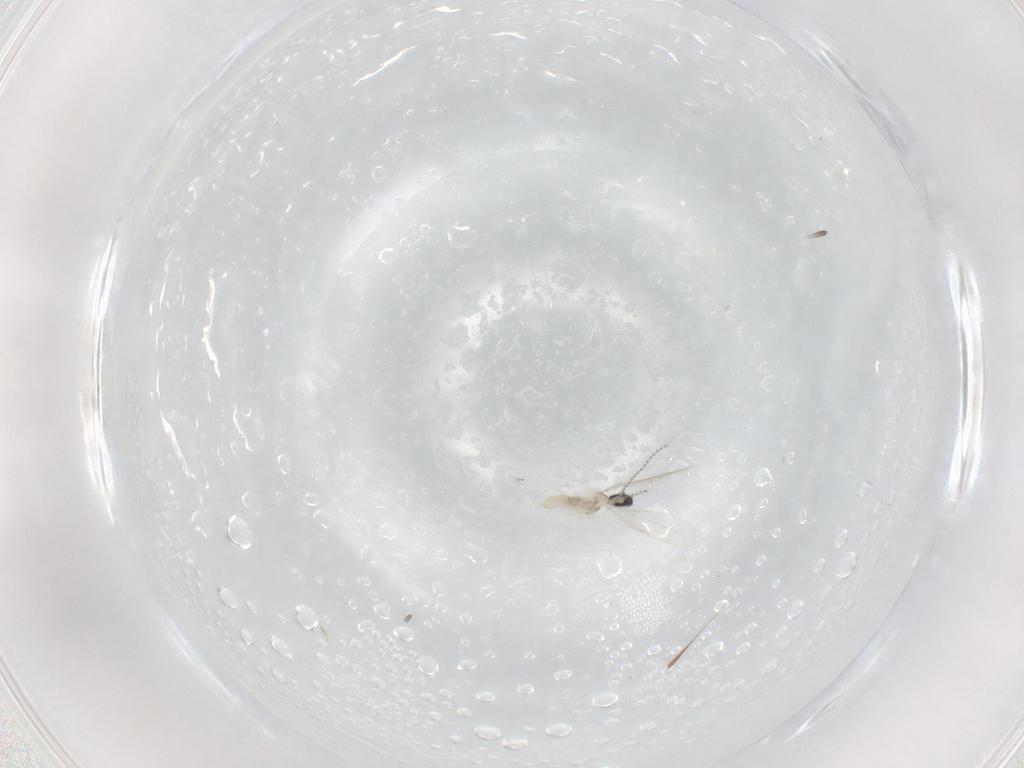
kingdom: Animalia
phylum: Arthropoda
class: Insecta
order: Diptera
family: Cecidomyiidae
